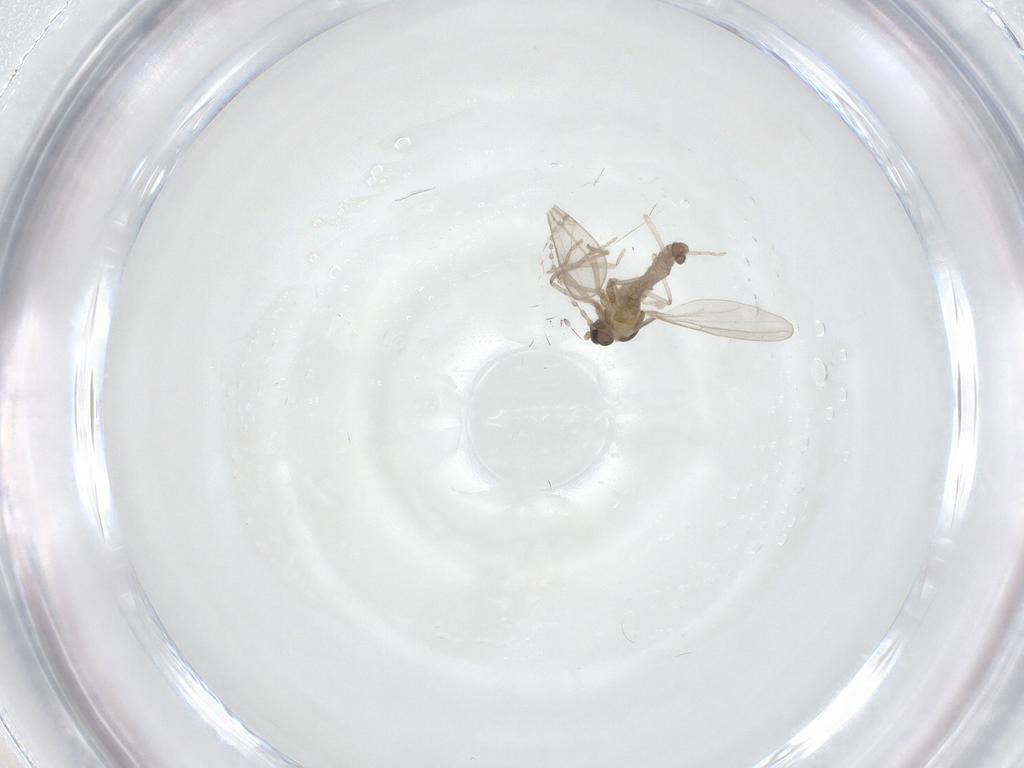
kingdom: Animalia
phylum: Arthropoda
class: Insecta
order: Diptera
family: Cecidomyiidae
